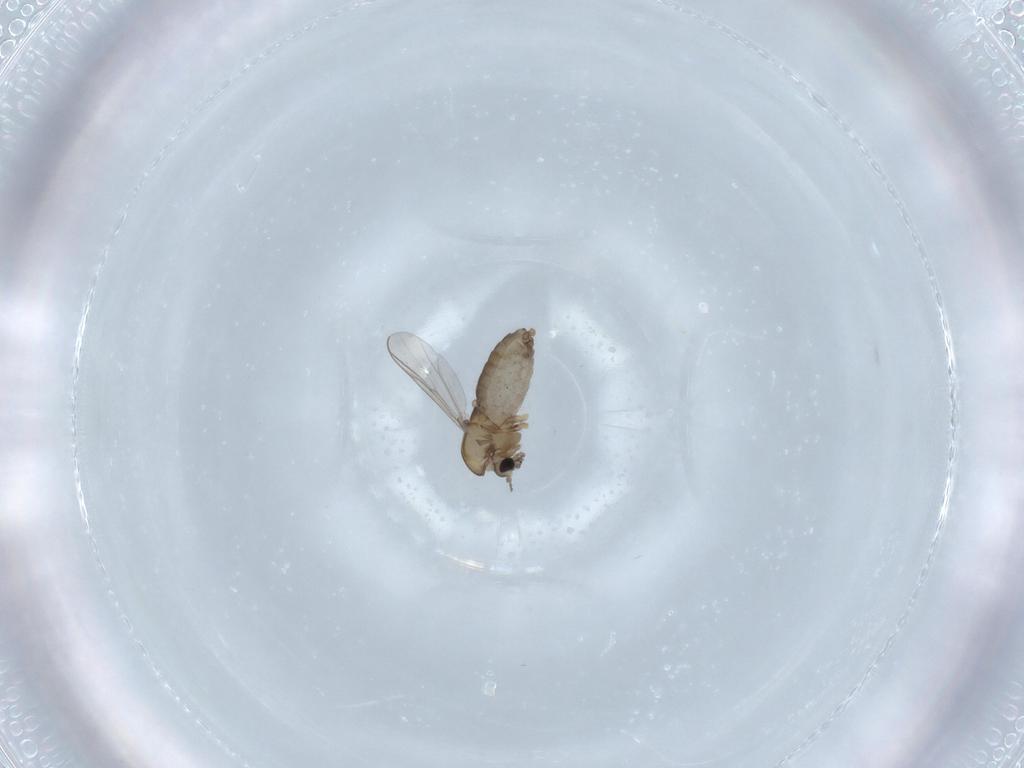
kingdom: Animalia
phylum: Arthropoda
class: Insecta
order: Diptera
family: Chironomidae
